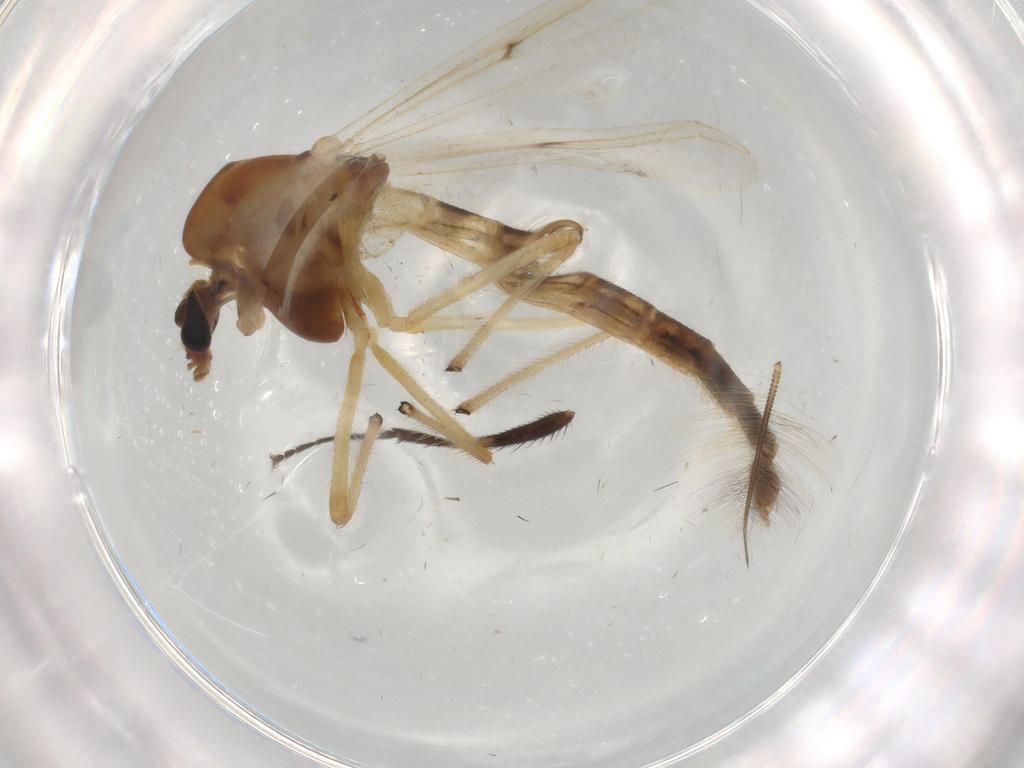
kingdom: Animalia
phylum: Arthropoda
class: Insecta
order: Diptera
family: Chironomidae
